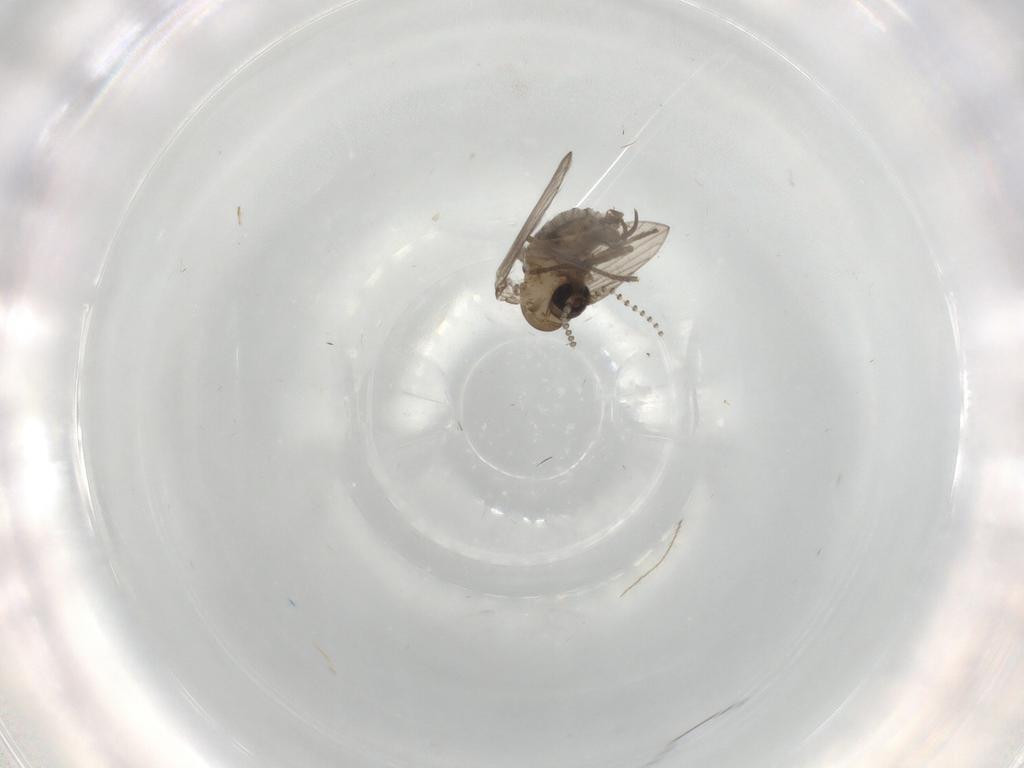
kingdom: Animalia
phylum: Arthropoda
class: Insecta
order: Diptera
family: Psychodidae
